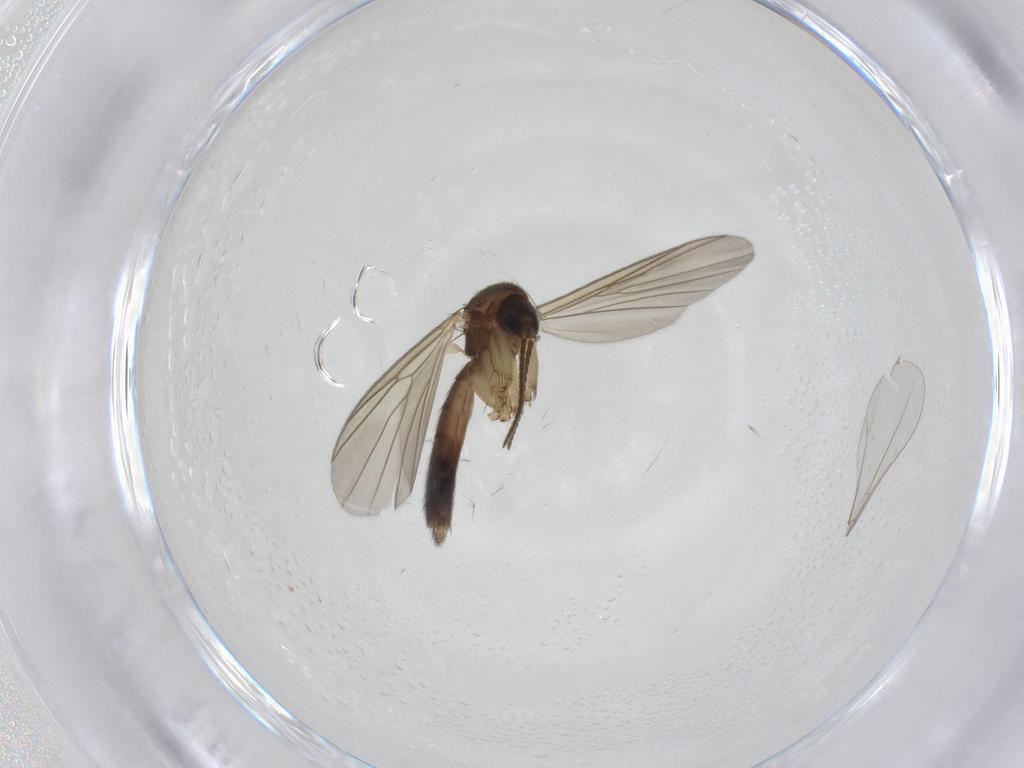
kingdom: Animalia
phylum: Arthropoda
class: Insecta
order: Diptera
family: Mycetophilidae
